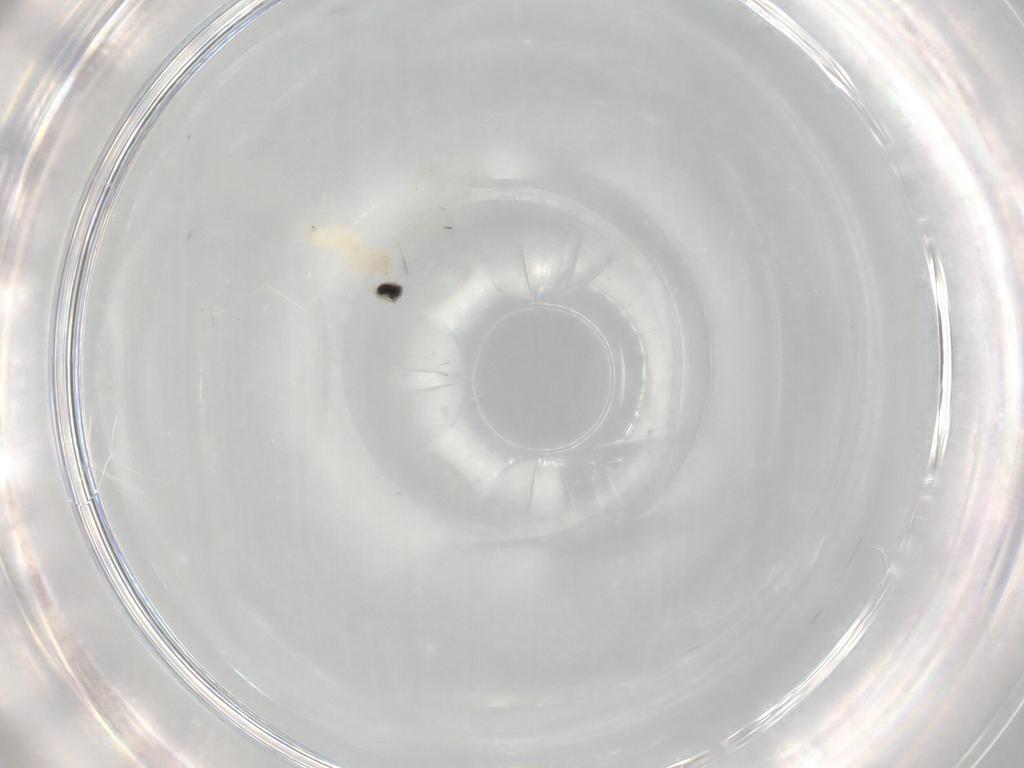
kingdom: Animalia
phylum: Arthropoda
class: Insecta
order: Diptera
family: Cecidomyiidae
